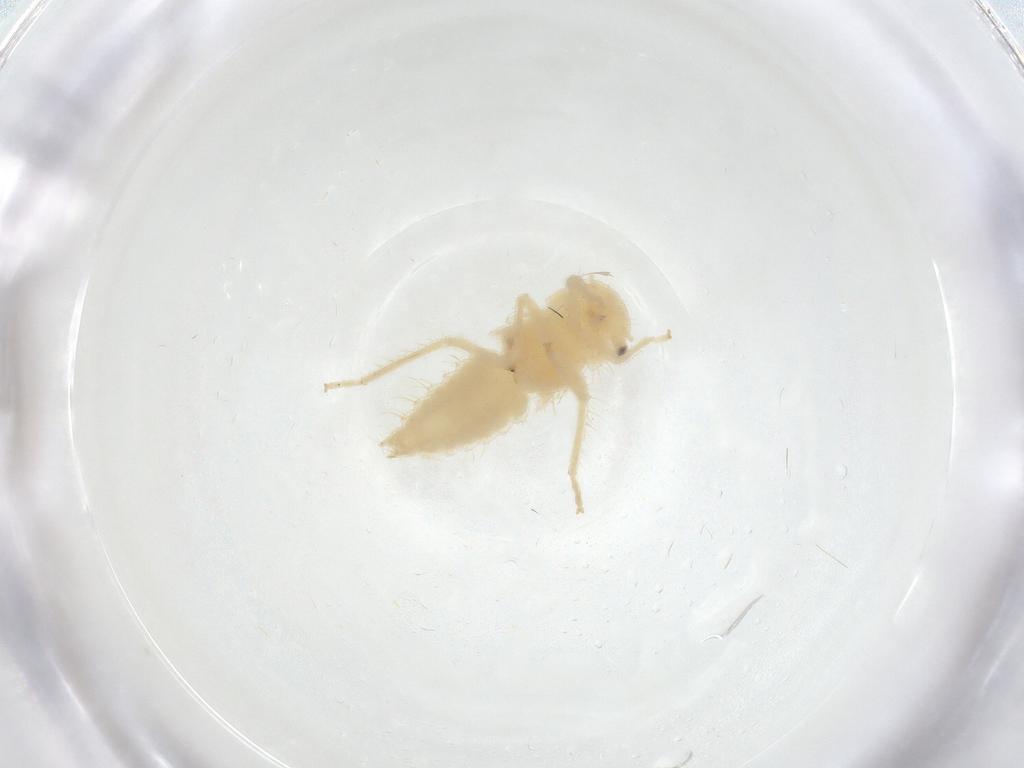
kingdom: Animalia
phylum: Arthropoda
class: Insecta
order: Hemiptera
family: Cicadellidae
